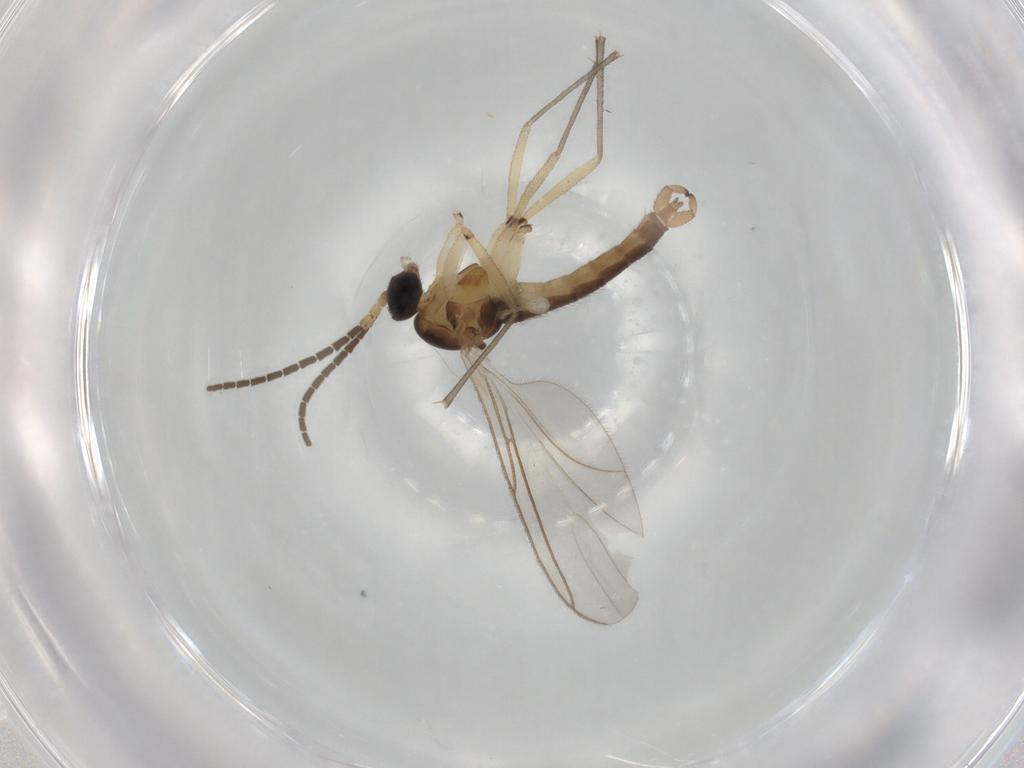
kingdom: Animalia
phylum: Arthropoda
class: Insecta
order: Diptera
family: Sciaridae
